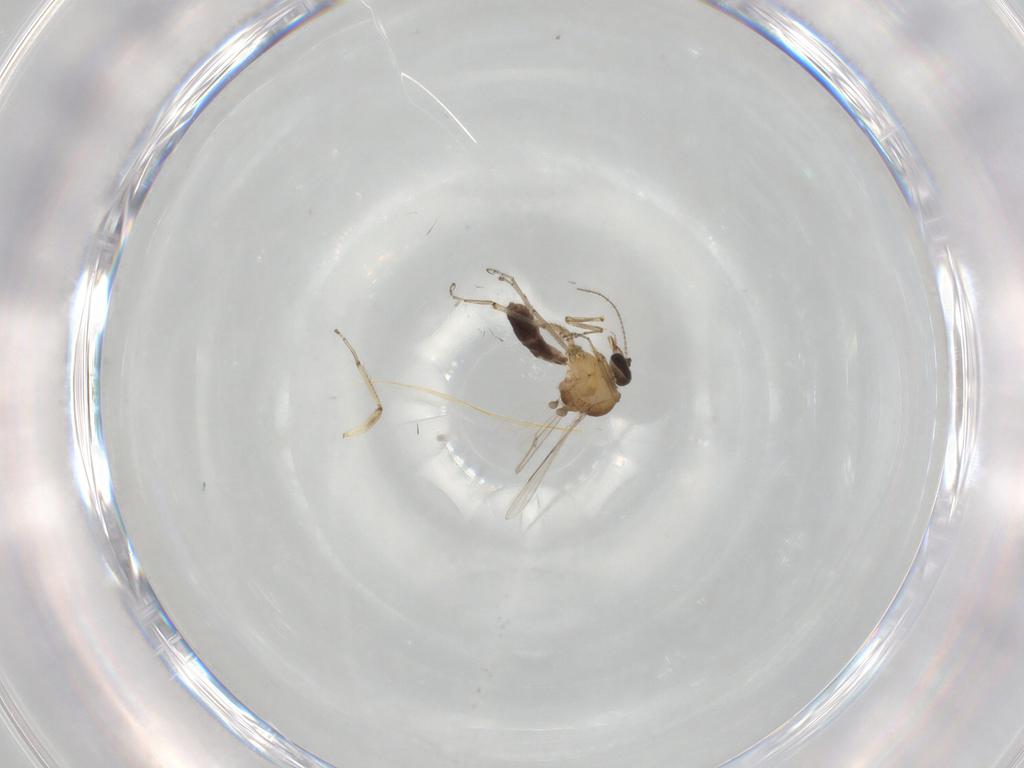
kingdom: Animalia
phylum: Arthropoda
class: Insecta
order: Diptera
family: Ceratopogonidae
